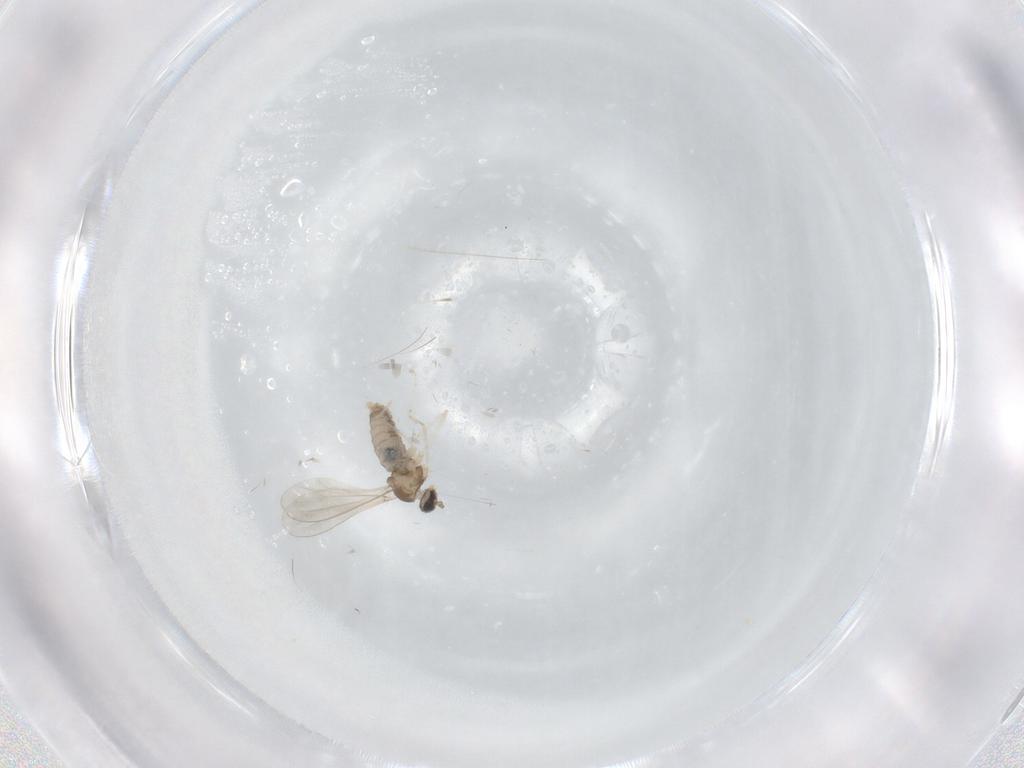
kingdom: Animalia
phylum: Arthropoda
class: Insecta
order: Diptera
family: Cecidomyiidae
